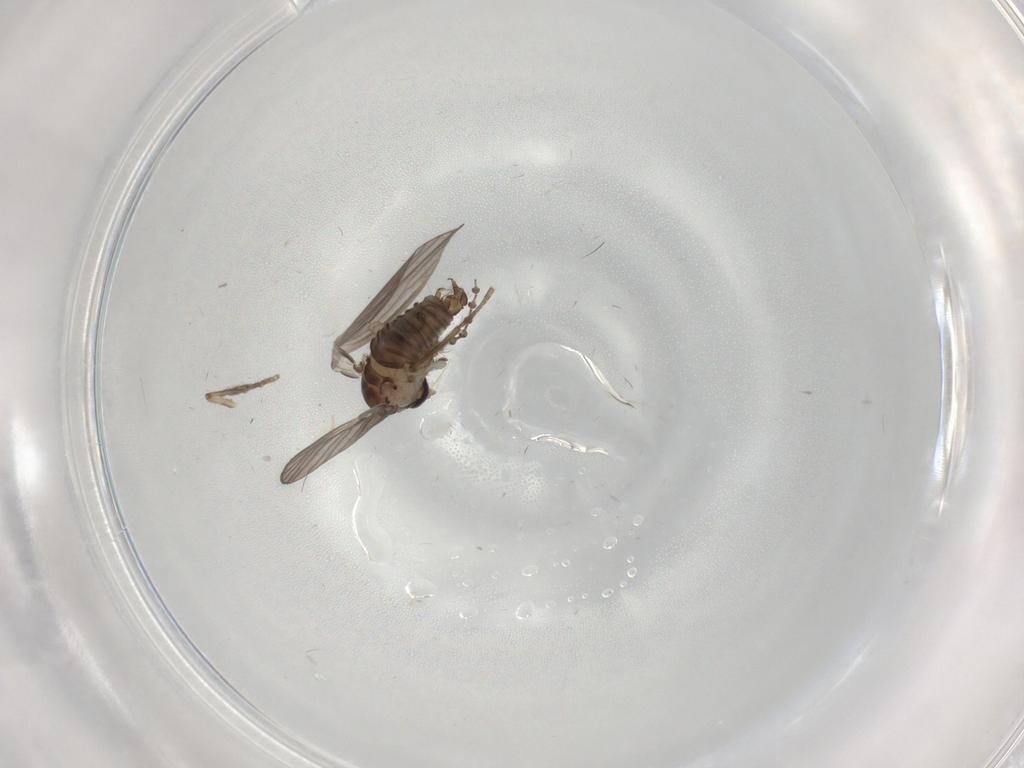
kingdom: Animalia
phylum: Arthropoda
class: Insecta
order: Diptera
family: Psychodidae
